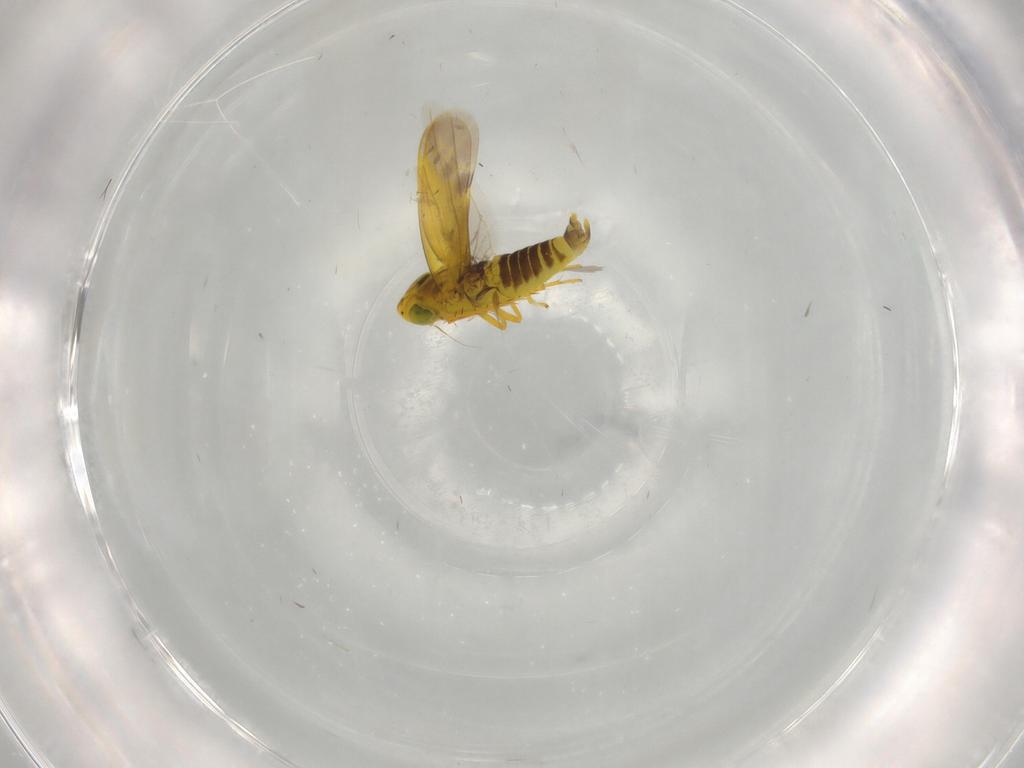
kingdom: Animalia
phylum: Arthropoda
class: Insecta
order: Hemiptera
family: Cicadellidae
